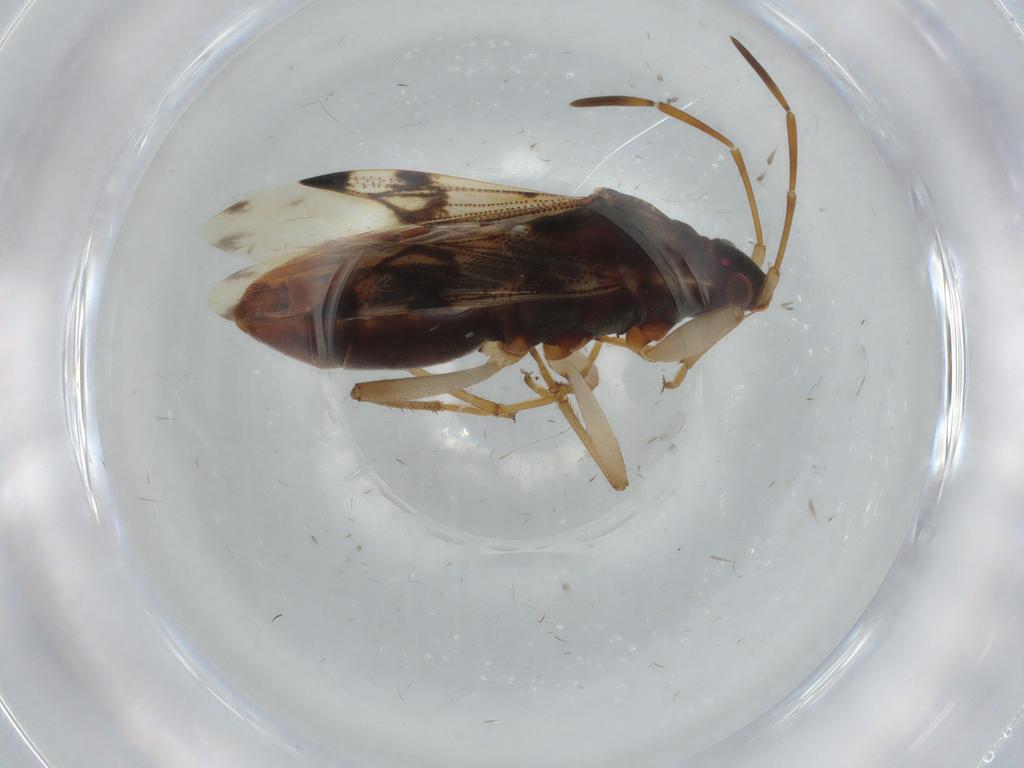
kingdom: Animalia
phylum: Arthropoda
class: Insecta
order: Hemiptera
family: Rhyparochromidae
